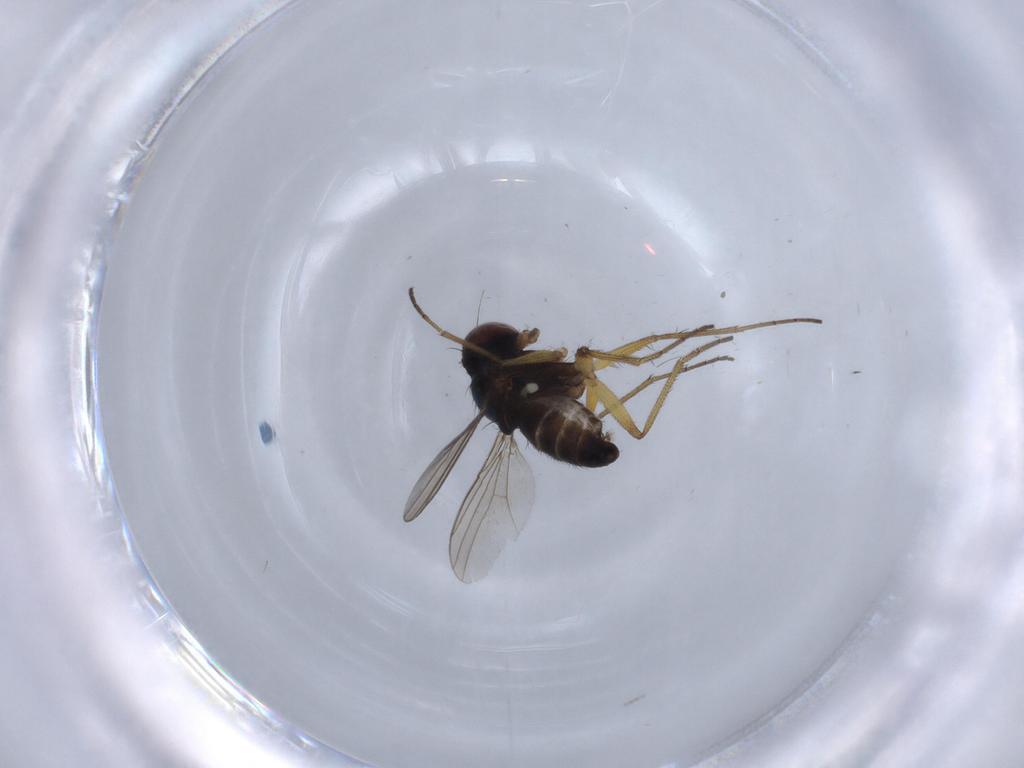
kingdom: Animalia
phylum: Arthropoda
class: Insecta
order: Diptera
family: Dolichopodidae
